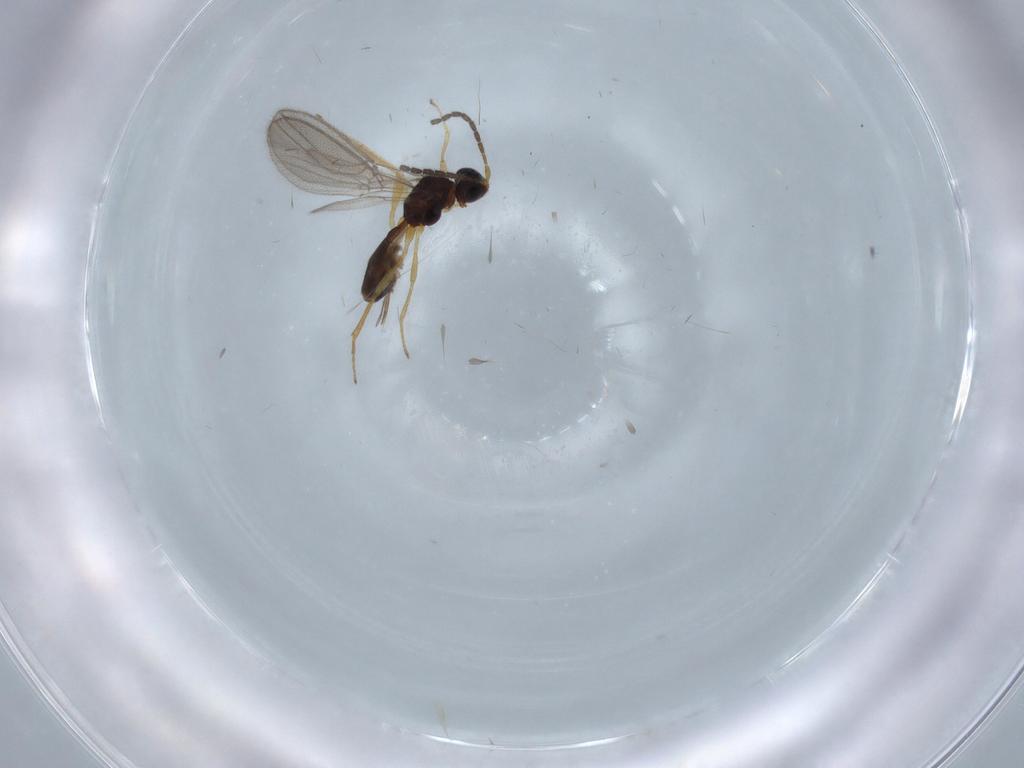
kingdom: Animalia
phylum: Arthropoda
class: Insecta
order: Hymenoptera
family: Braconidae
